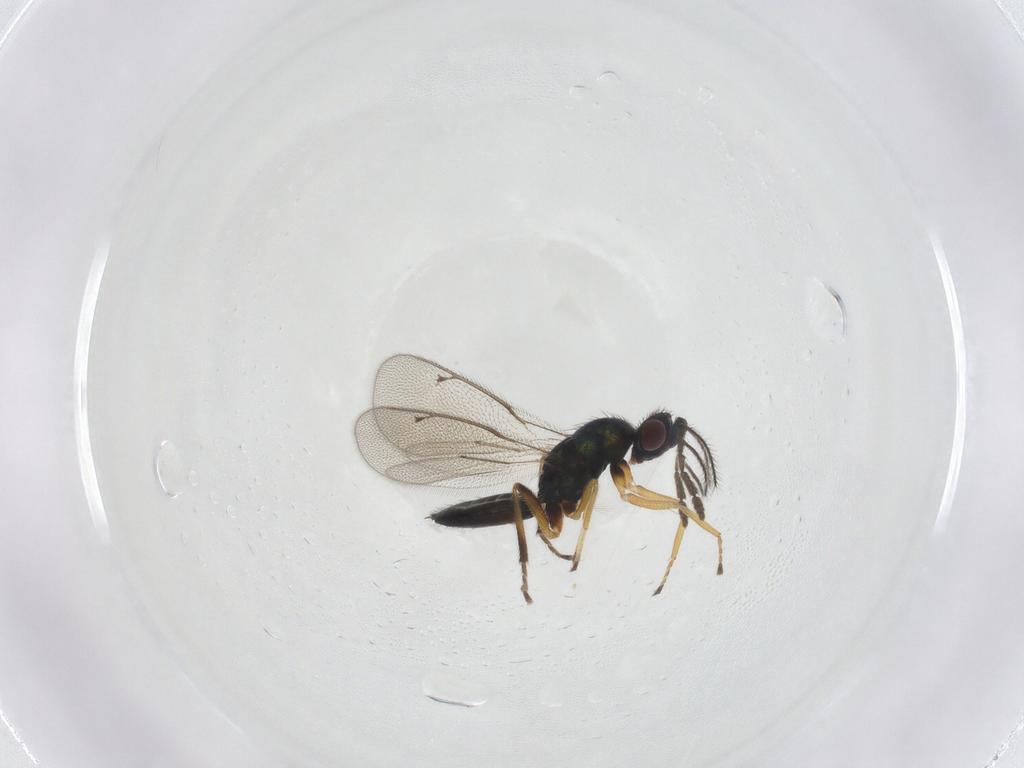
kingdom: Animalia
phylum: Arthropoda
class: Insecta
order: Hymenoptera
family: Eulophidae
